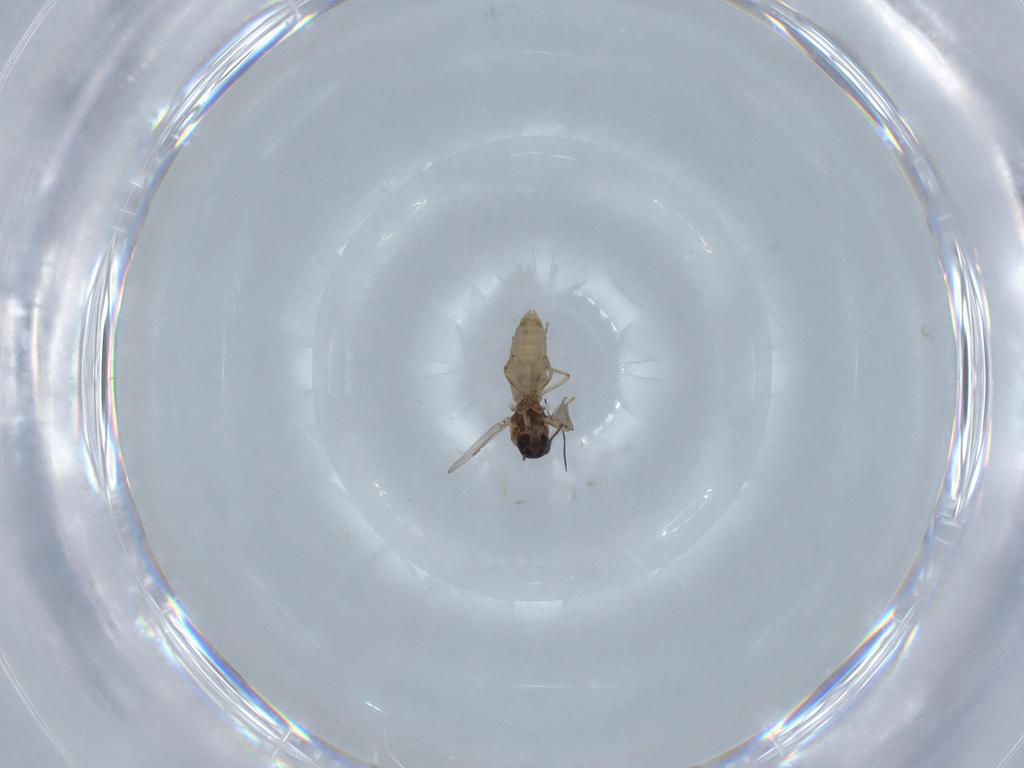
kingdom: Animalia
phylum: Arthropoda
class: Insecta
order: Diptera
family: Ceratopogonidae
